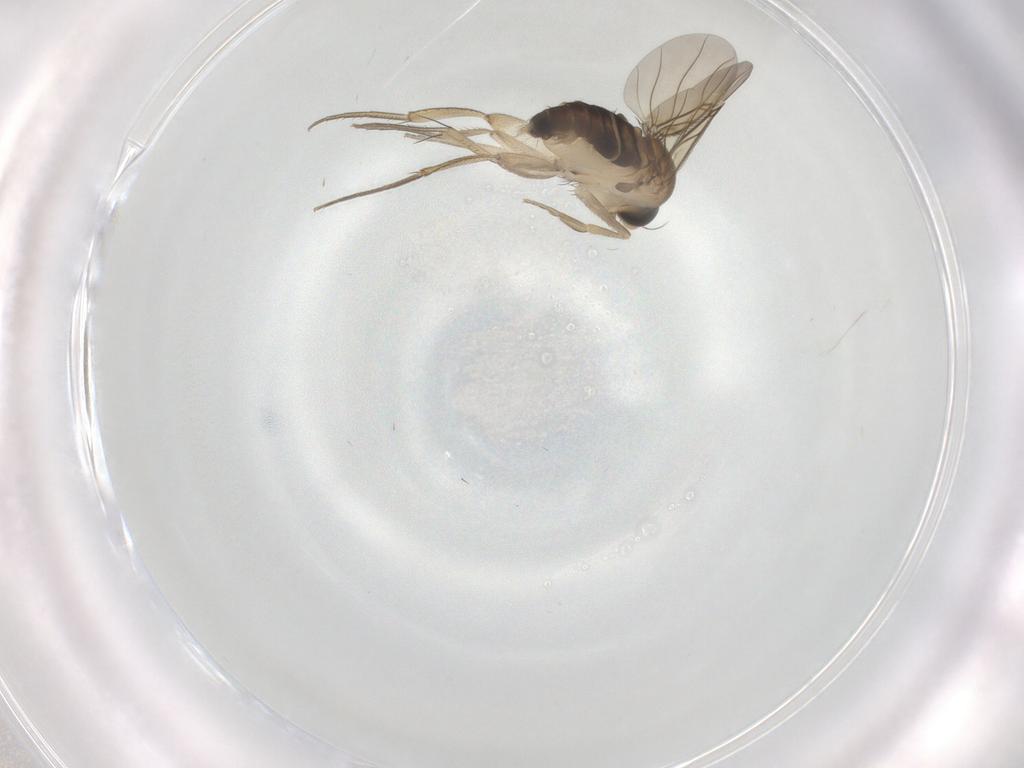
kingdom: Animalia
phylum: Arthropoda
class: Insecta
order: Diptera
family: Phoridae
